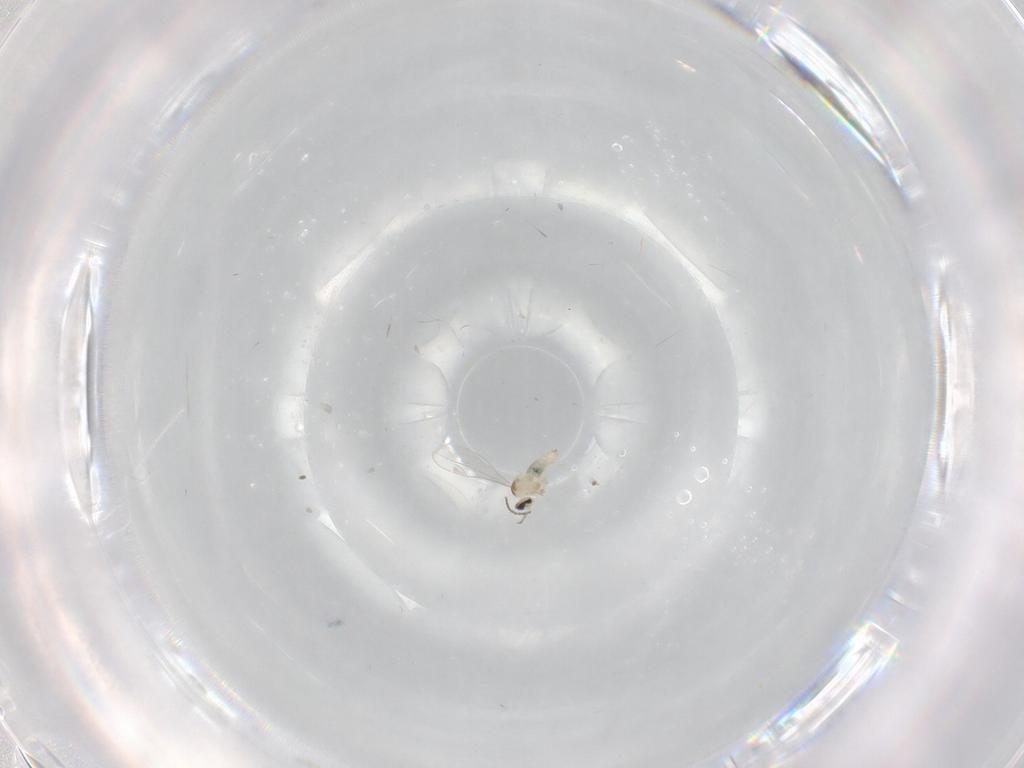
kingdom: Animalia
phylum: Arthropoda
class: Insecta
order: Diptera
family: Cecidomyiidae
